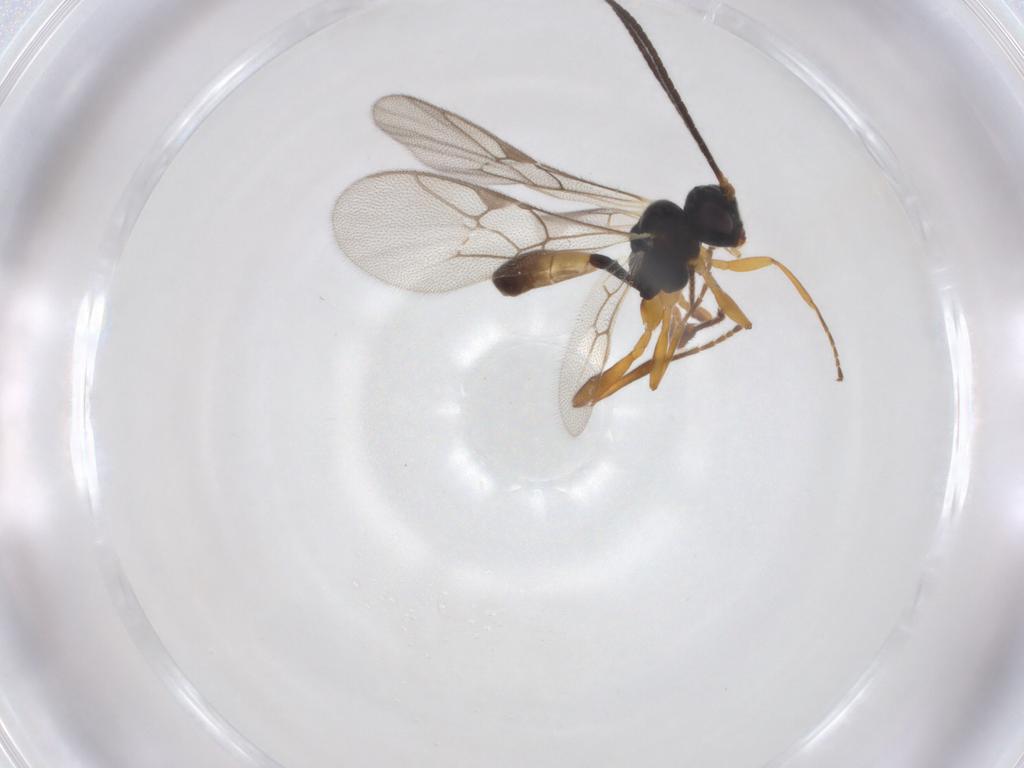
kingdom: Animalia
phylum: Arthropoda
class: Insecta
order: Hymenoptera
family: Ichneumonidae
